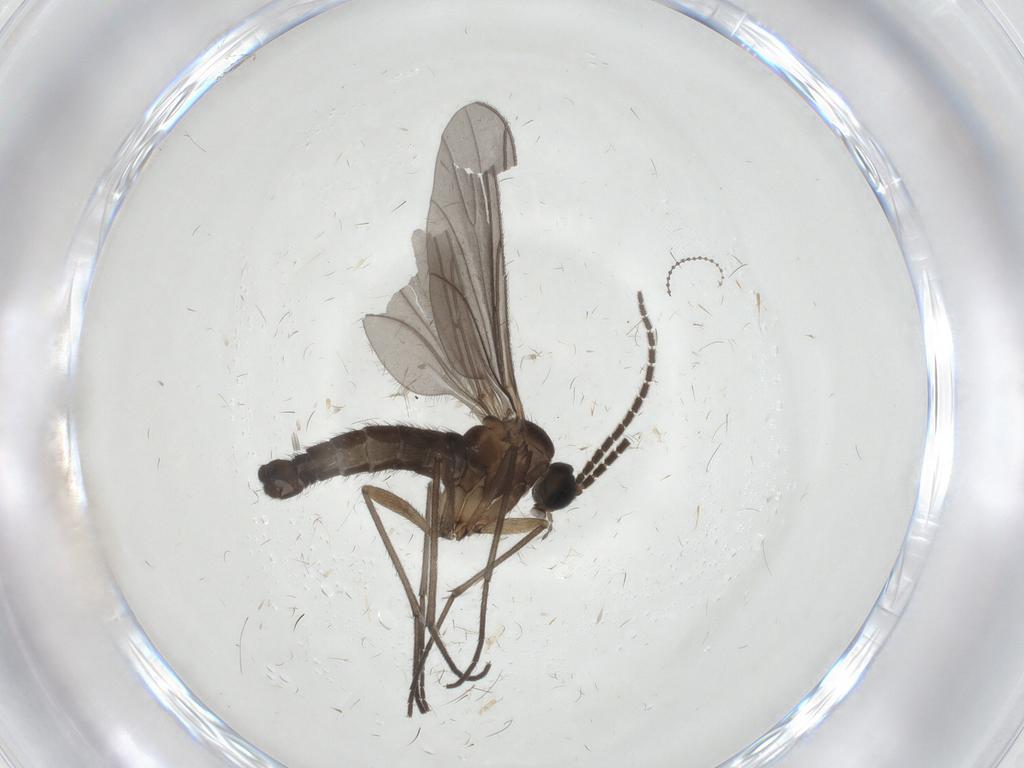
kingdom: Animalia
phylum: Arthropoda
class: Insecta
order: Diptera
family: Sciaridae
